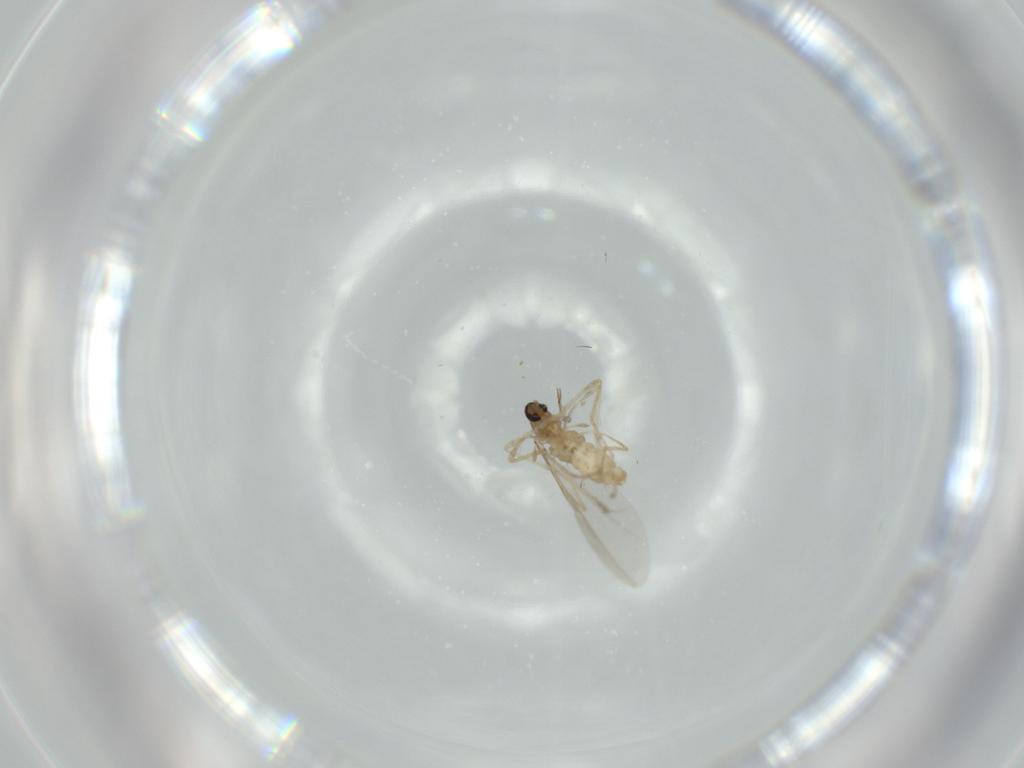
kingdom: Animalia
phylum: Arthropoda
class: Insecta
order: Diptera
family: Cecidomyiidae
